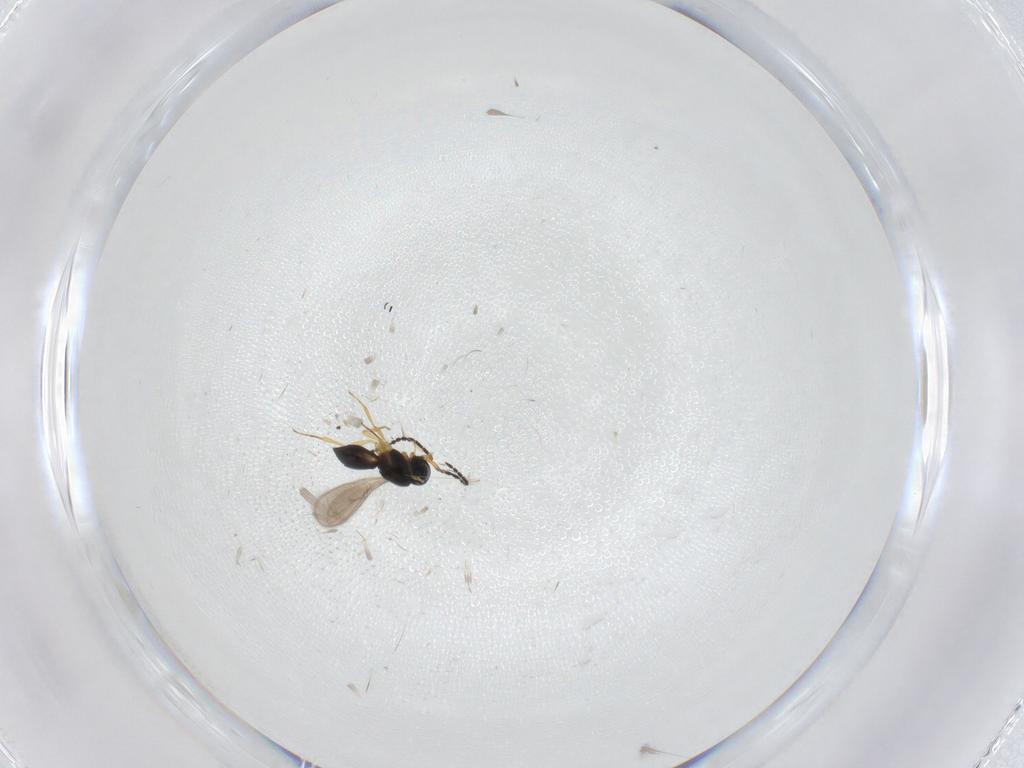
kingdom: Animalia
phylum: Arthropoda
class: Insecta
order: Hymenoptera
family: Scelionidae
